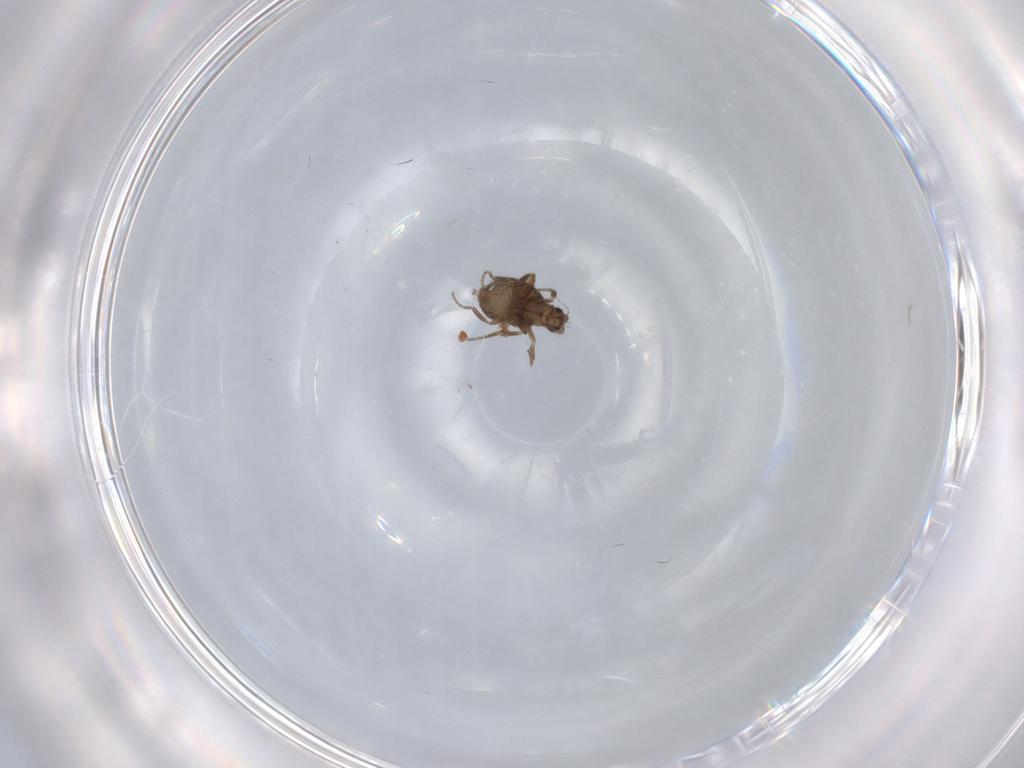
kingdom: Animalia
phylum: Arthropoda
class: Insecta
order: Diptera
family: Phoridae
